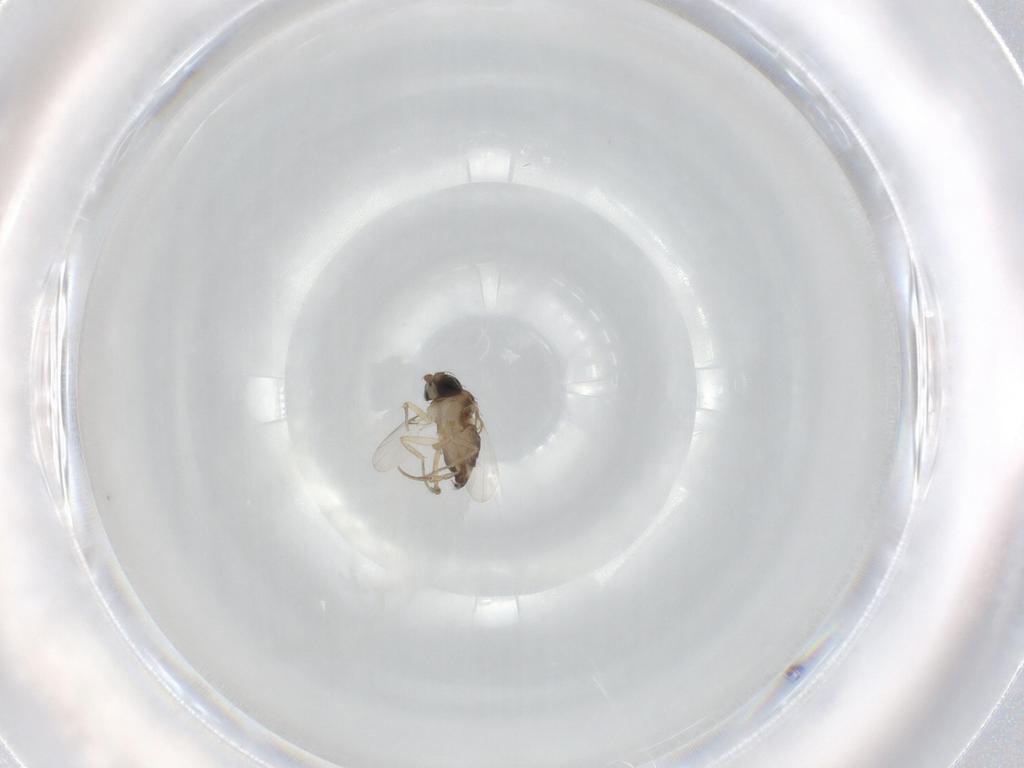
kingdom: Animalia
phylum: Arthropoda
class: Insecta
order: Diptera
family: Phoridae
